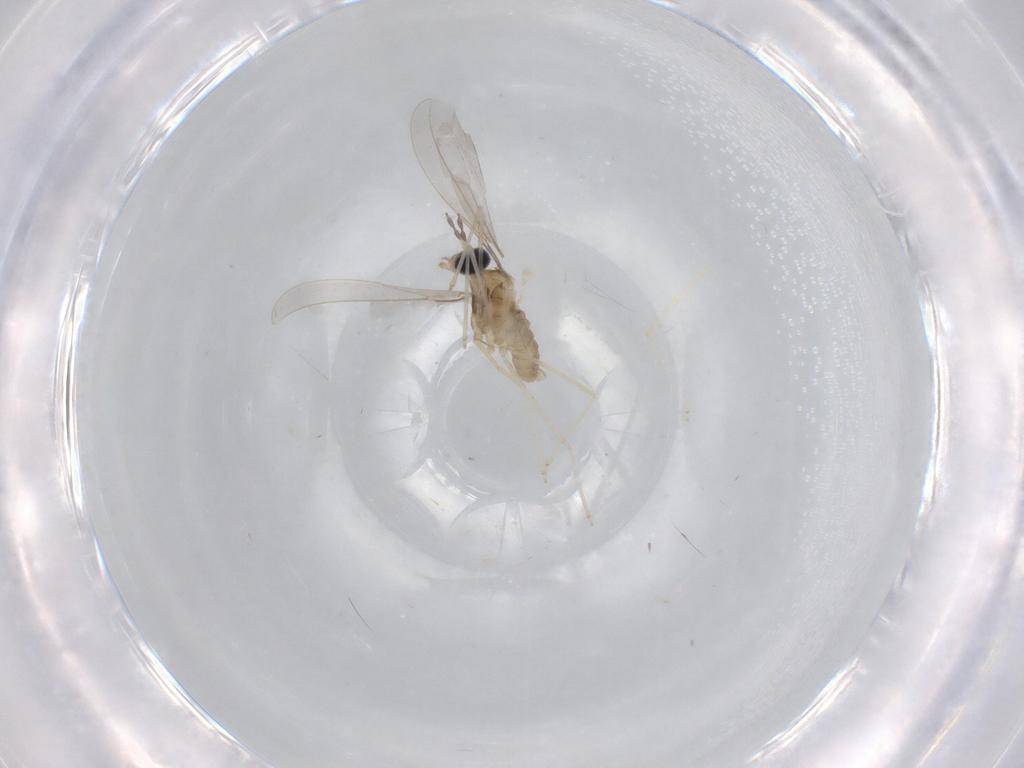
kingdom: Animalia
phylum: Arthropoda
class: Insecta
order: Diptera
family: Cecidomyiidae
